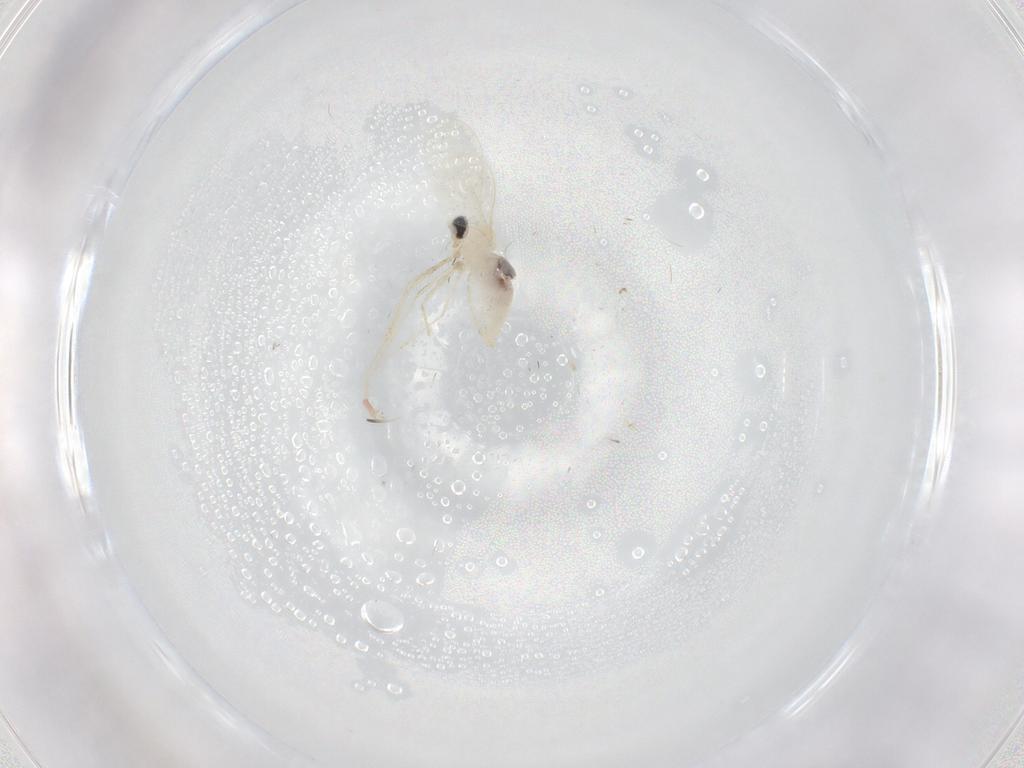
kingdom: Animalia
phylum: Arthropoda
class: Insecta
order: Diptera
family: Cecidomyiidae
